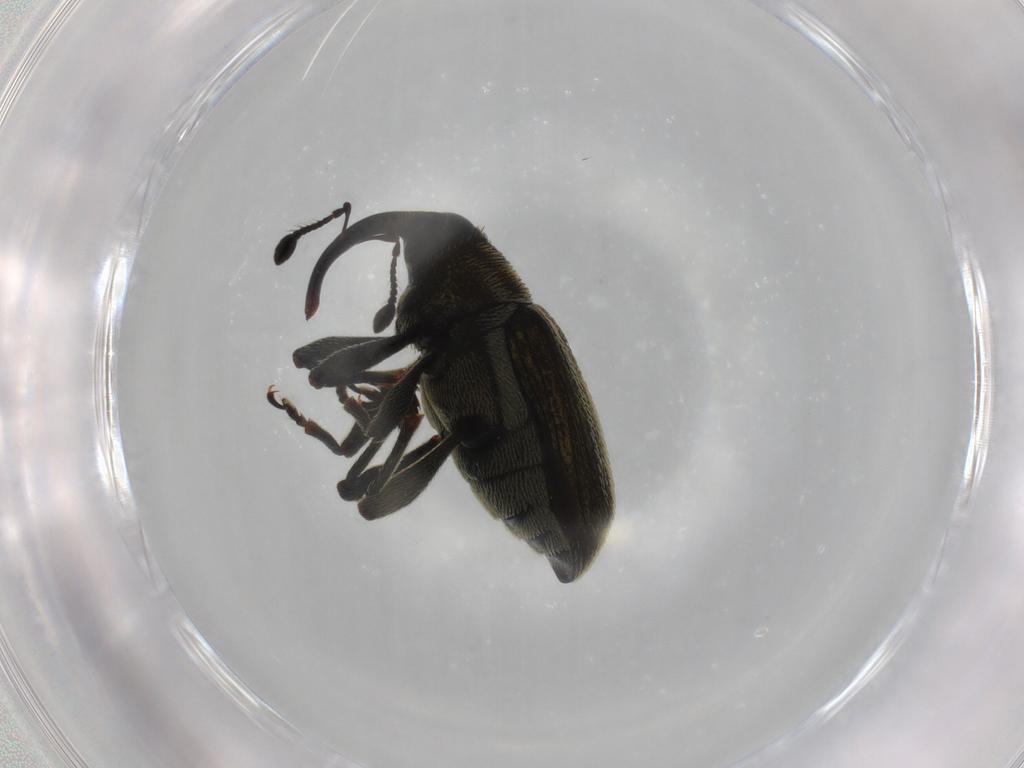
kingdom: Animalia
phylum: Arthropoda
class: Insecta
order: Coleoptera
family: Curculionidae
